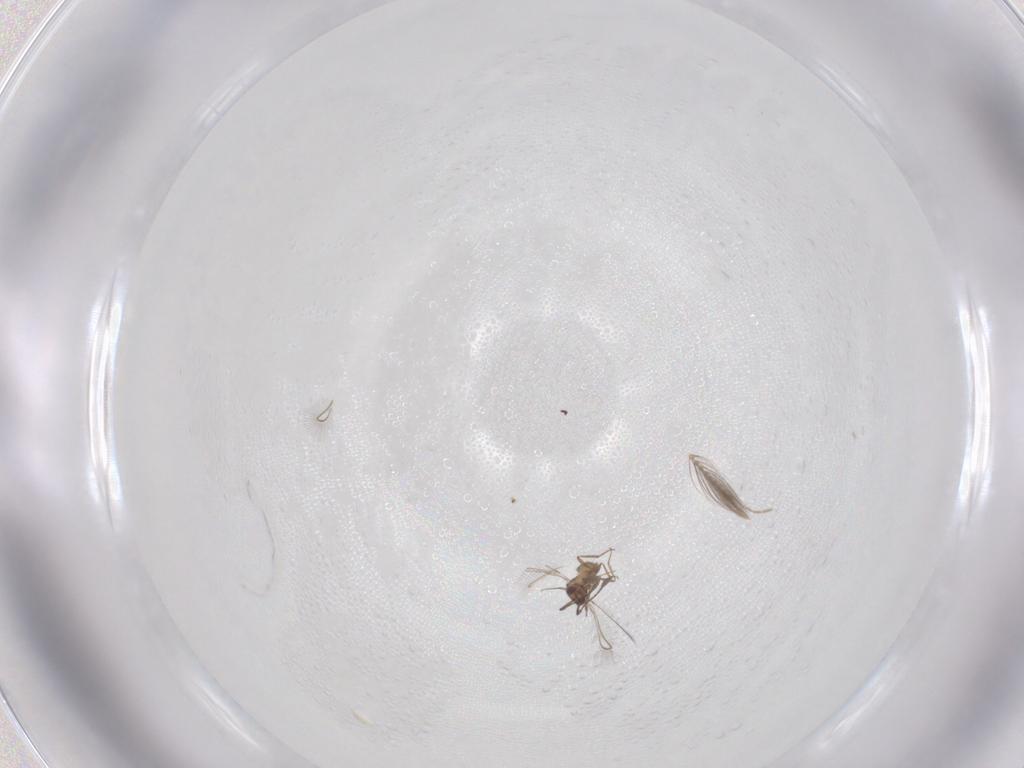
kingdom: Animalia
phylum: Arthropoda
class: Insecta
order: Diptera
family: Ceratopogonidae
